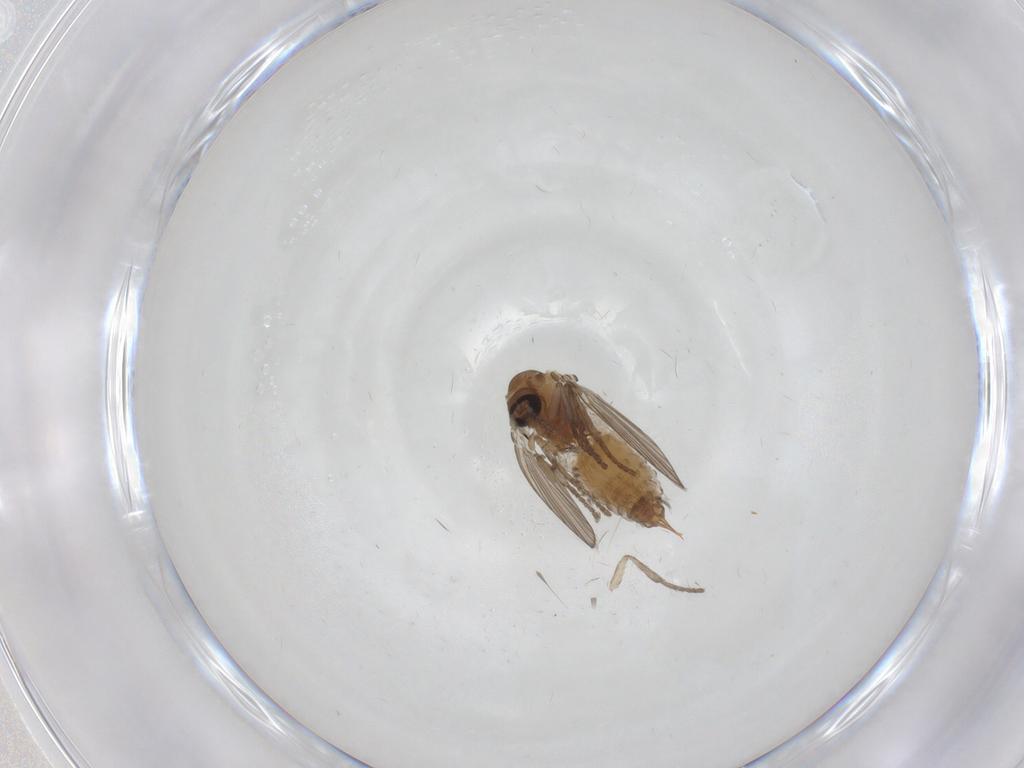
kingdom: Animalia
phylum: Arthropoda
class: Insecta
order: Diptera
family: Psychodidae
